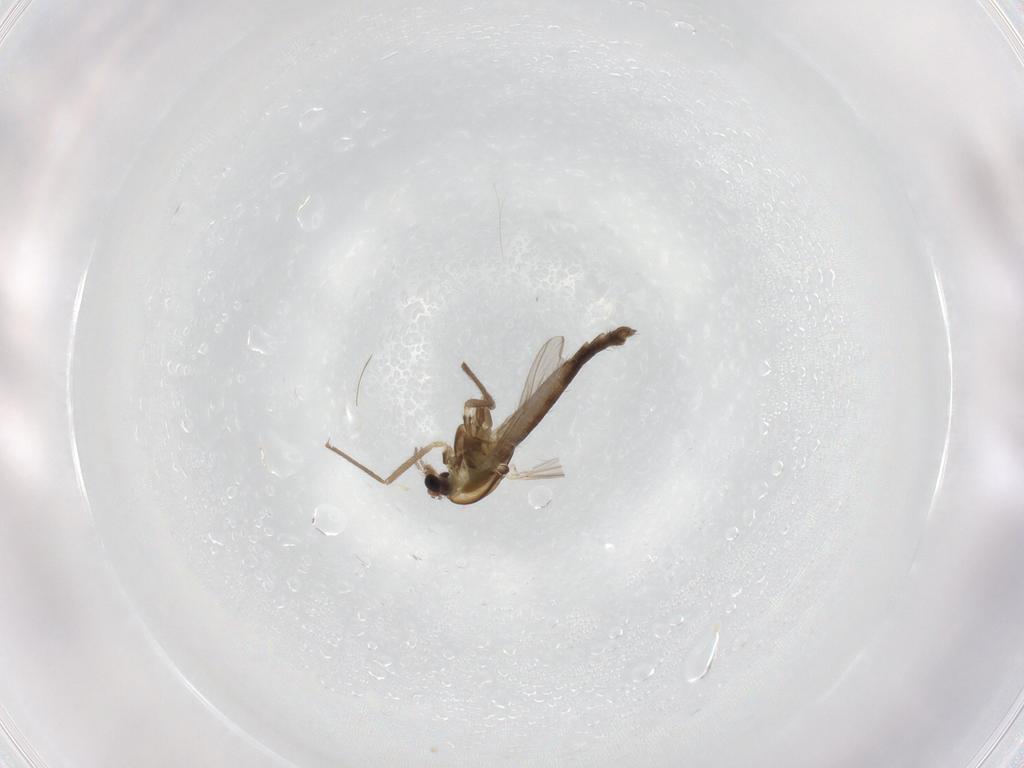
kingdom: Animalia
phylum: Arthropoda
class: Insecta
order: Diptera
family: Chironomidae
